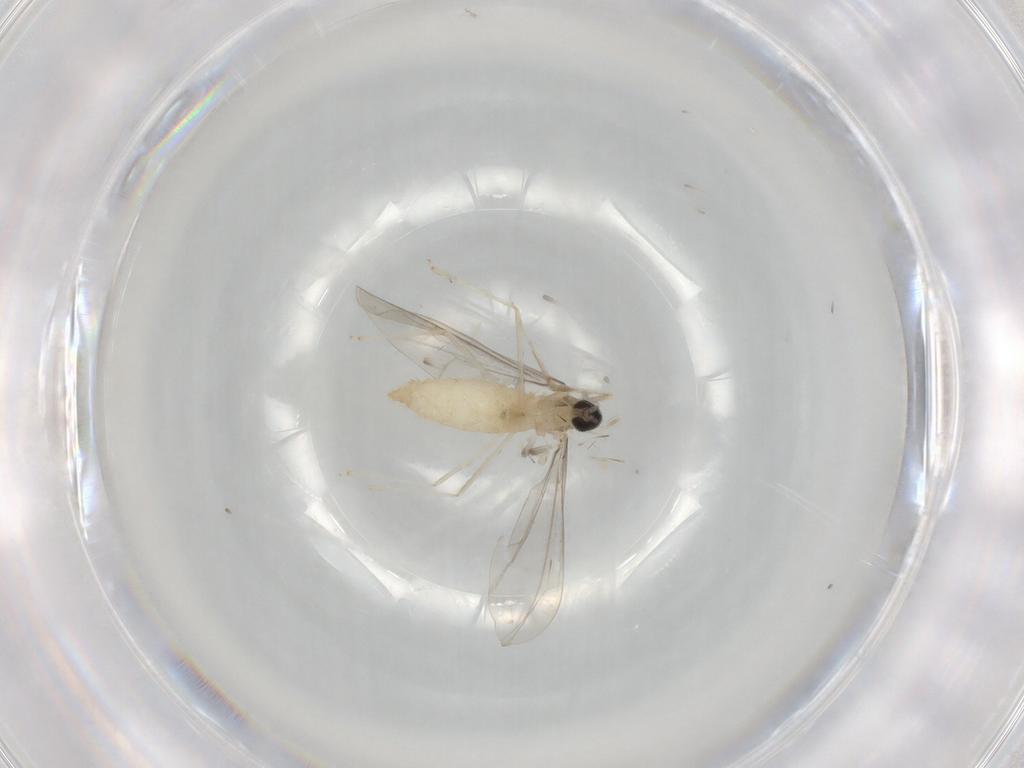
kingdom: Animalia
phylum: Arthropoda
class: Insecta
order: Diptera
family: Cecidomyiidae
